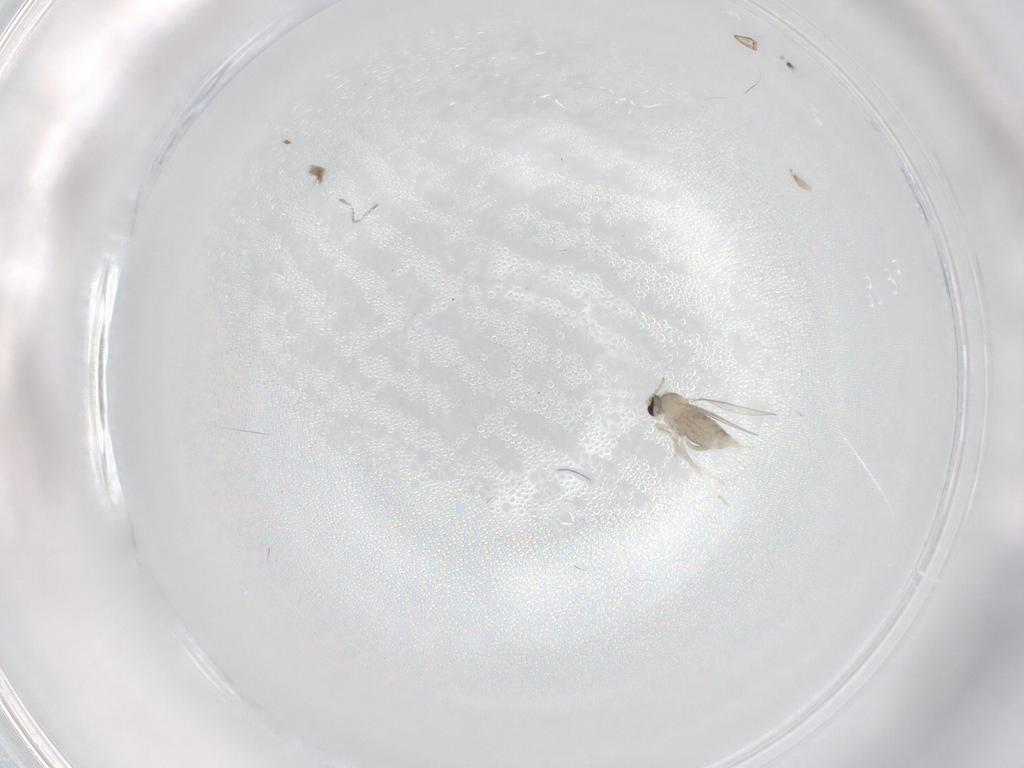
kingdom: Animalia
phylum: Arthropoda
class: Insecta
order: Diptera
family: Cecidomyiidae
